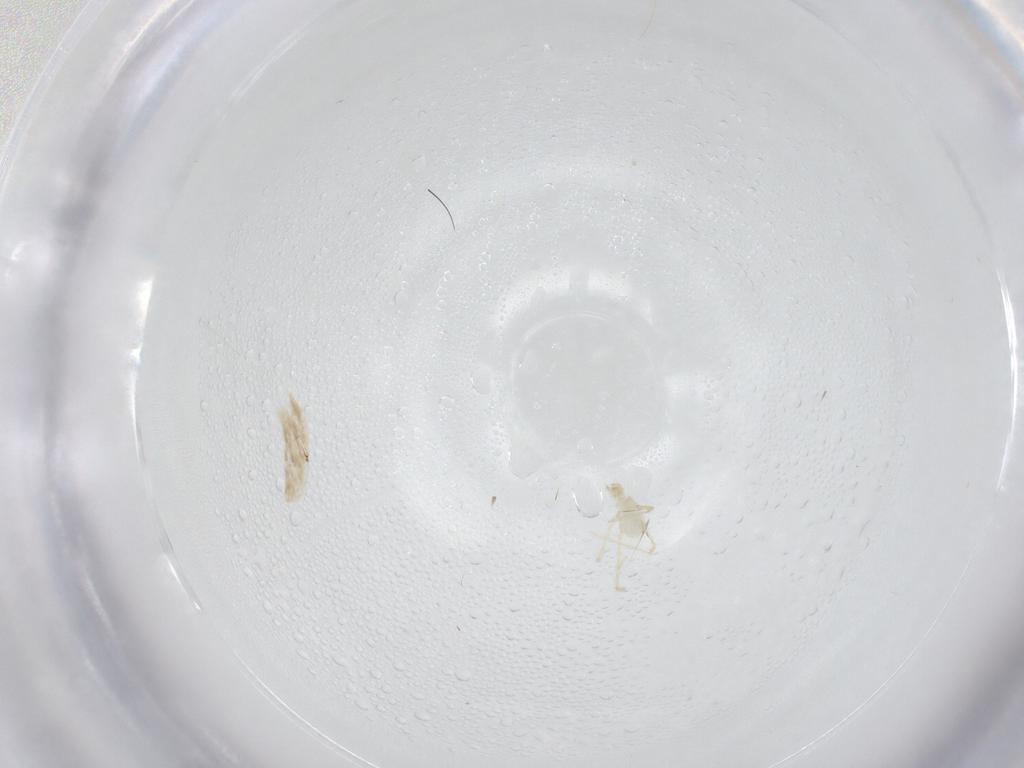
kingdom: Animalia
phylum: Arthropoda
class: Arachnida
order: Trombidiformes
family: Erythraeidae
